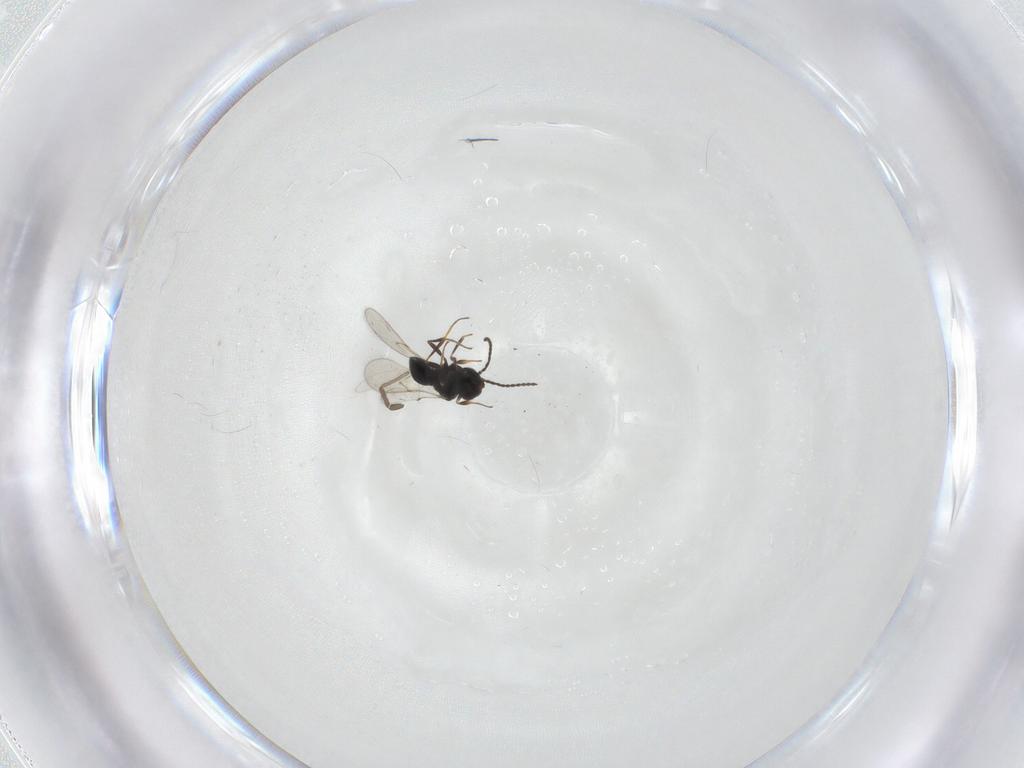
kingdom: Animalia
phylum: Arthropoda
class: Insecta
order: Hymenoptera
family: Scelionidae
